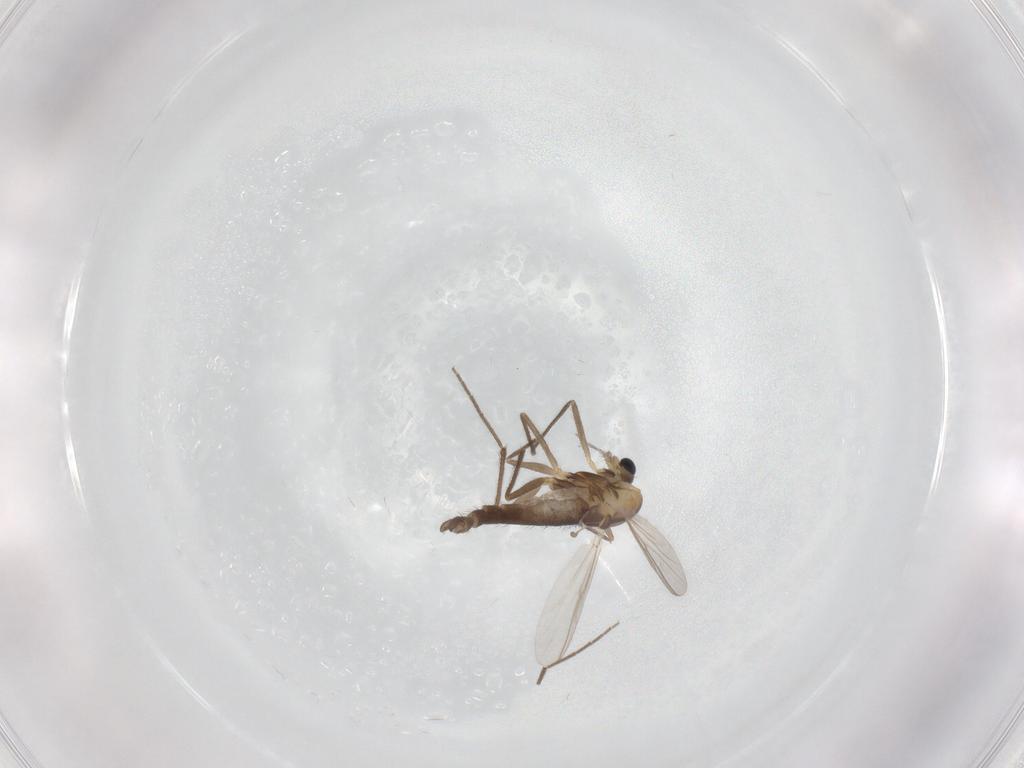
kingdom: Animalia
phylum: Arthropoda
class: Insecta
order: Diptera
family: Chironomidae
